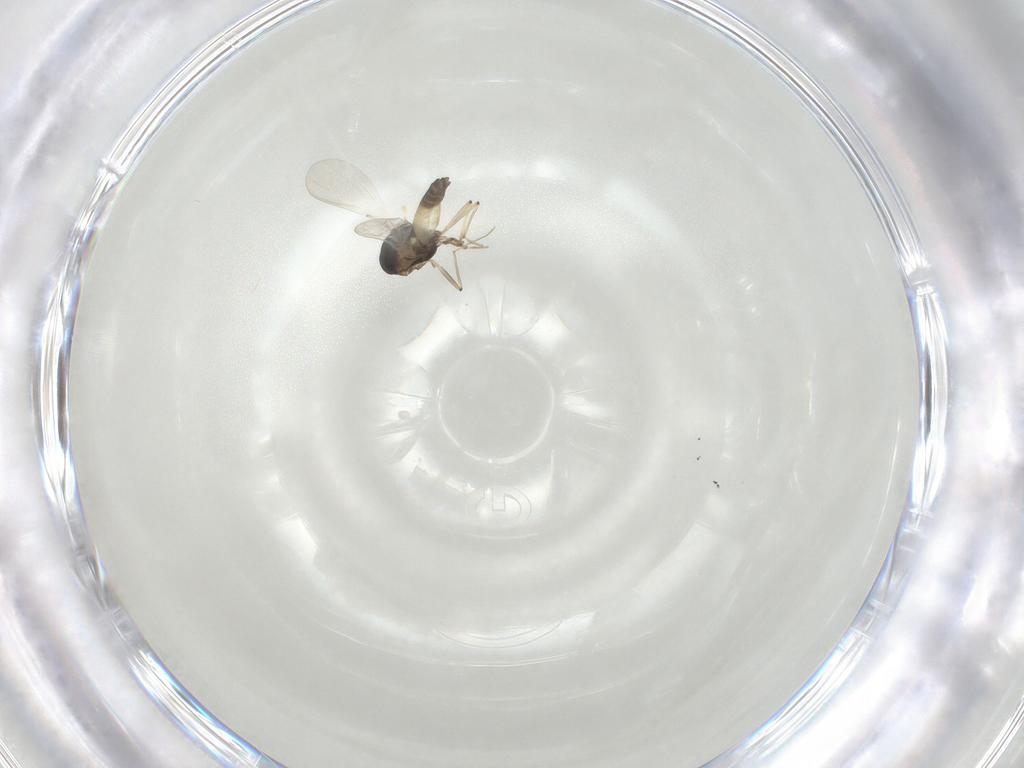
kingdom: Animalia
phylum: Arthropoda
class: Insecta
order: Diptera
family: Chironomidae
